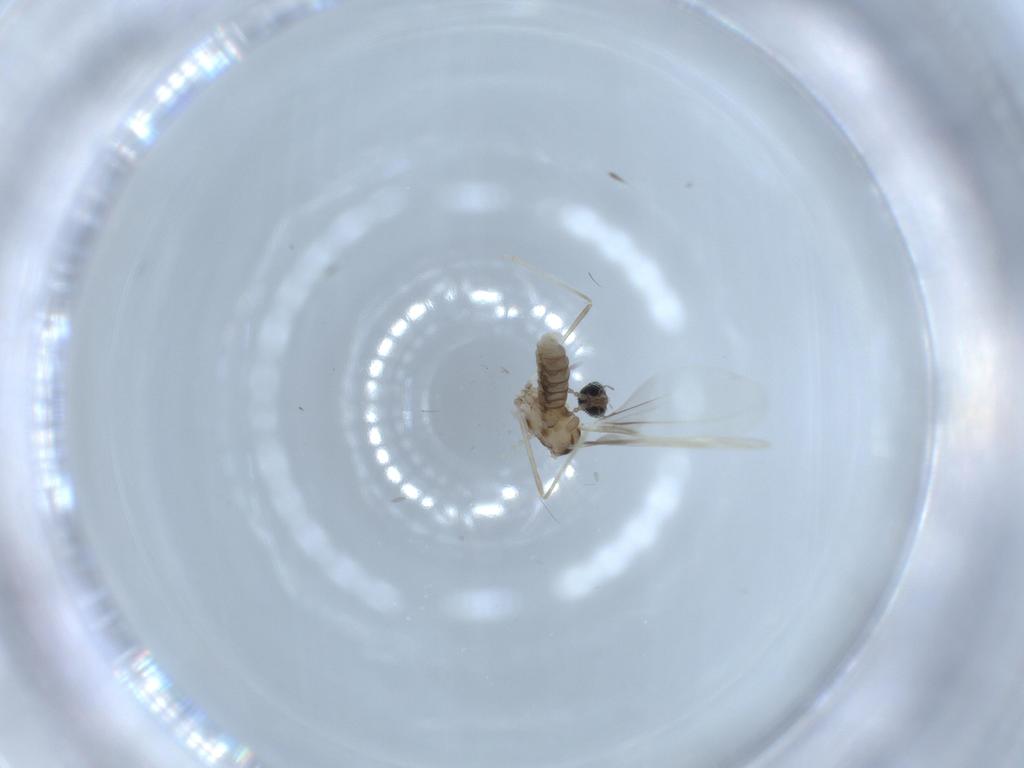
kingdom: Animalia
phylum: Arthropoda
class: Insecta
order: Diptera
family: Cecidomyiidae
